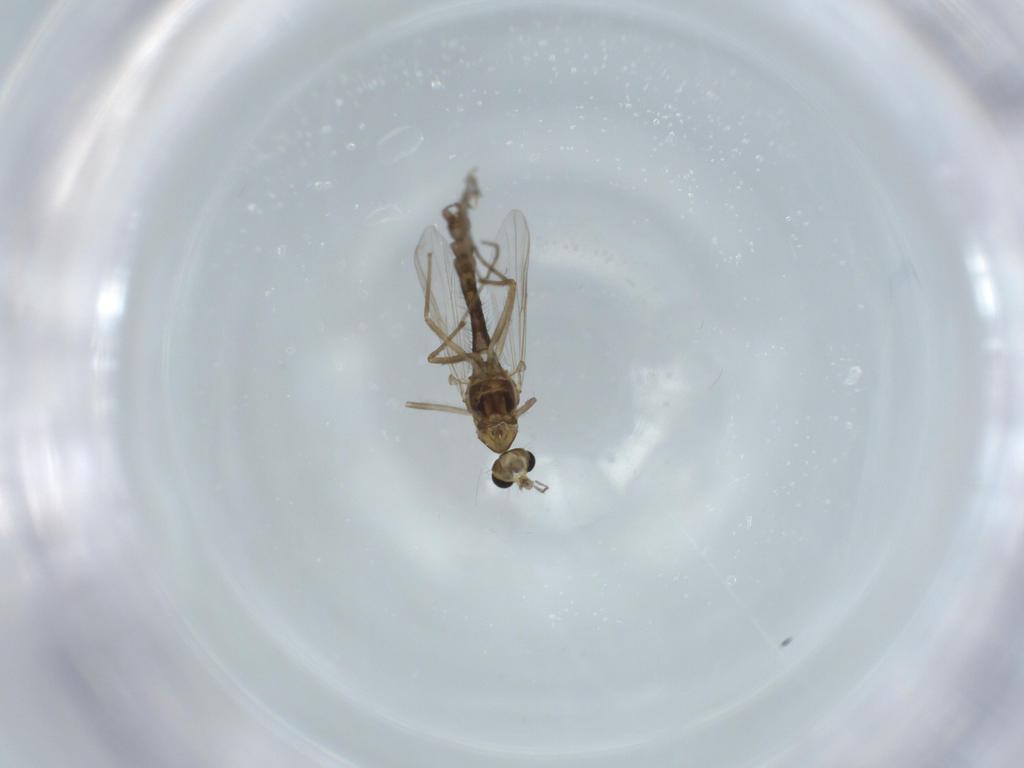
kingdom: Animalia
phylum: Arthropoda
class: Insecta
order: Diptera
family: Chironomidae
